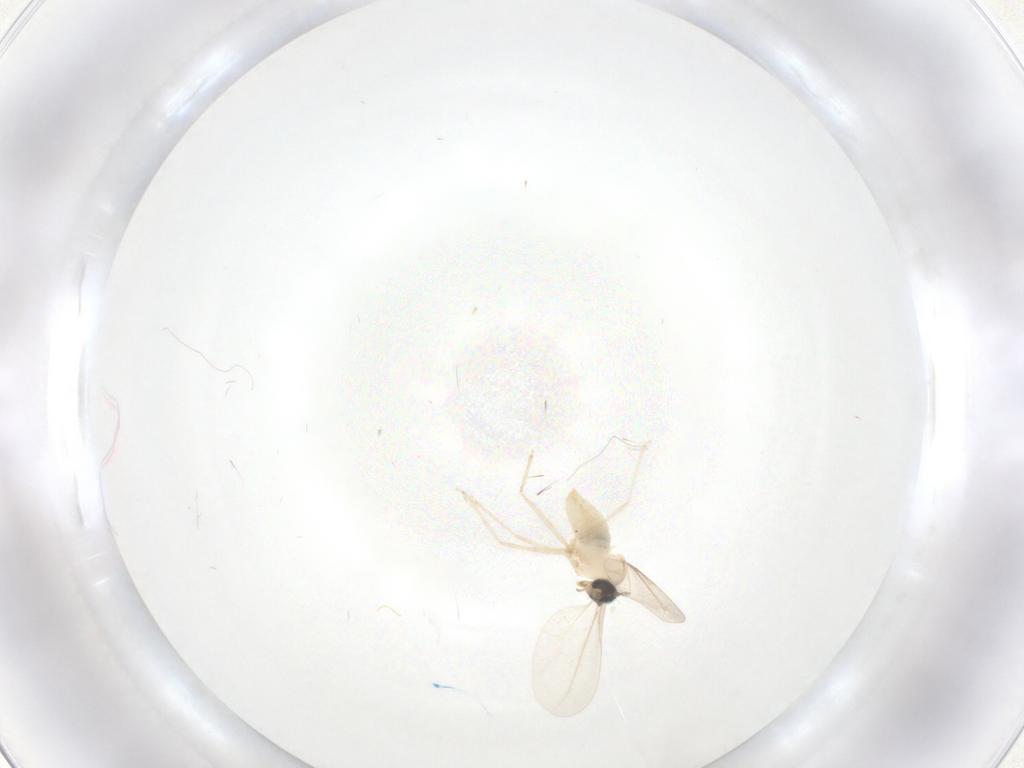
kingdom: Animalia
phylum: Arthropoda
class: Insecta
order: Diptera
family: Cecidomyiidae
